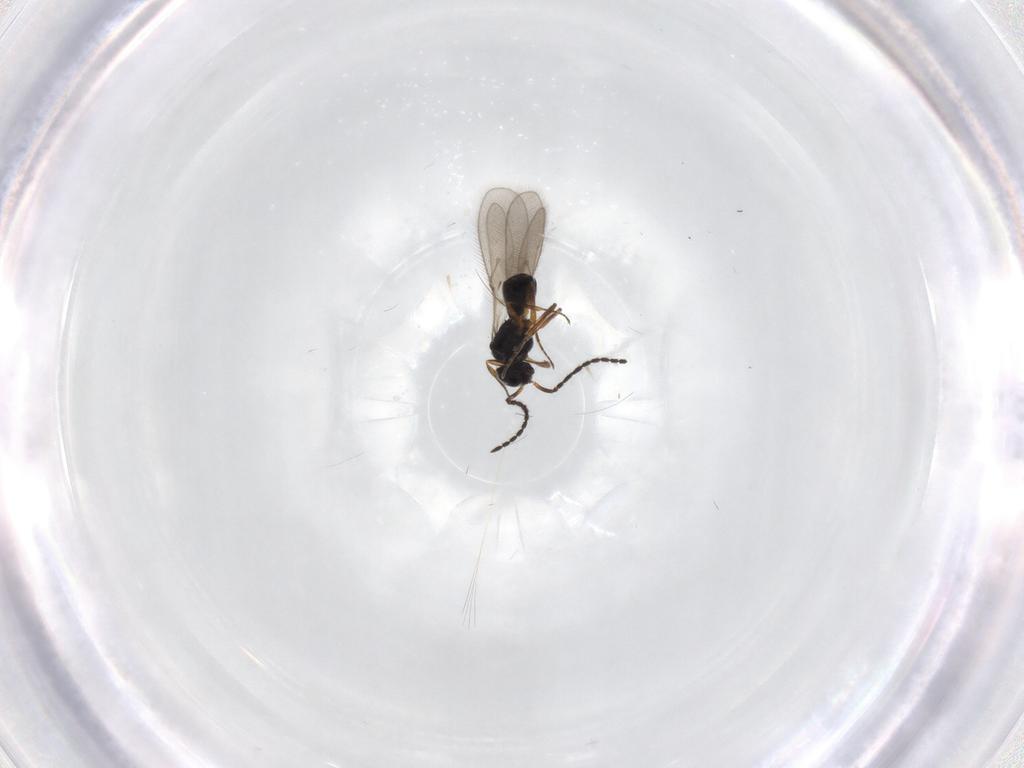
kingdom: Animalia
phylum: Arthropoda
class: Insecta
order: Hymenoptera
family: Scelionidae
